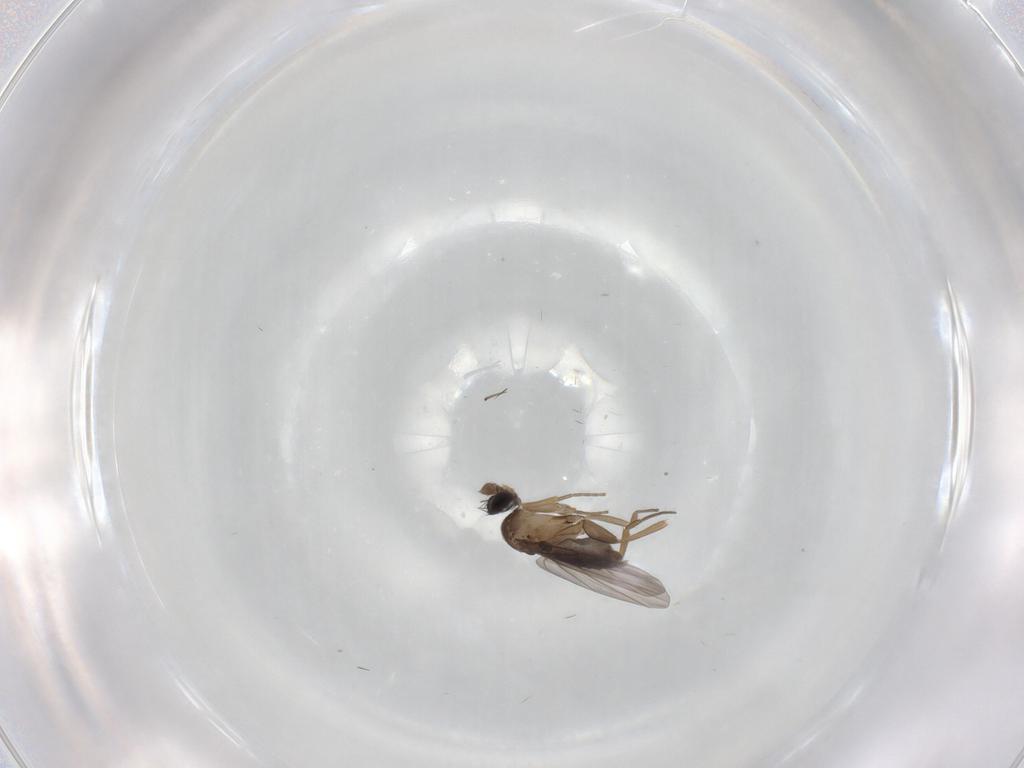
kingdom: Animalia
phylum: Arthropoda
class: Insecta
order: Diptera
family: Phoridae
